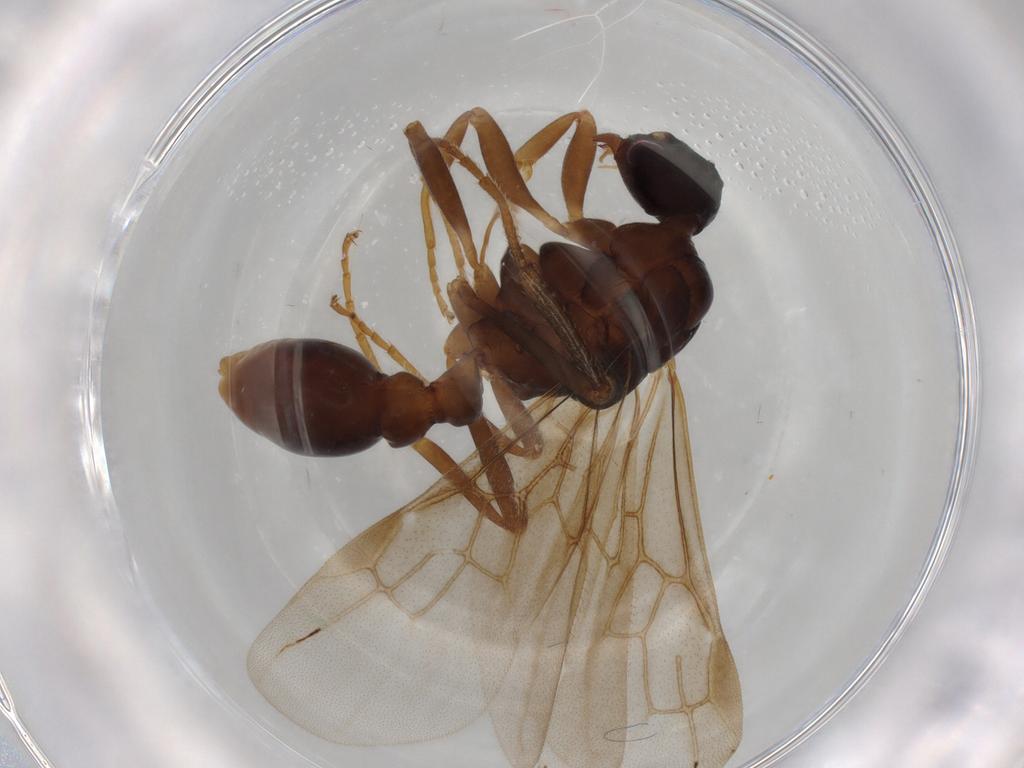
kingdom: Animalia
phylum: Arthropoda
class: Insecta
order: Hymenoptera
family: Formicidae
